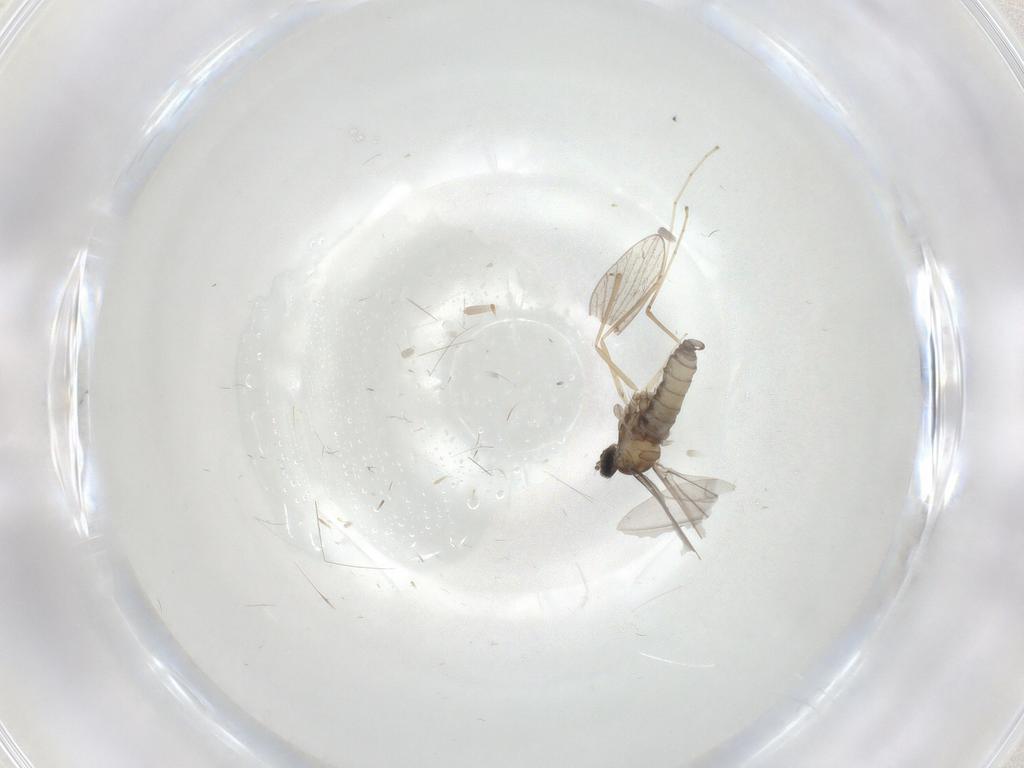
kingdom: Animalia
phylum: Arthropoda
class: Insecta
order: Diptera
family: Cecidomyiidae
